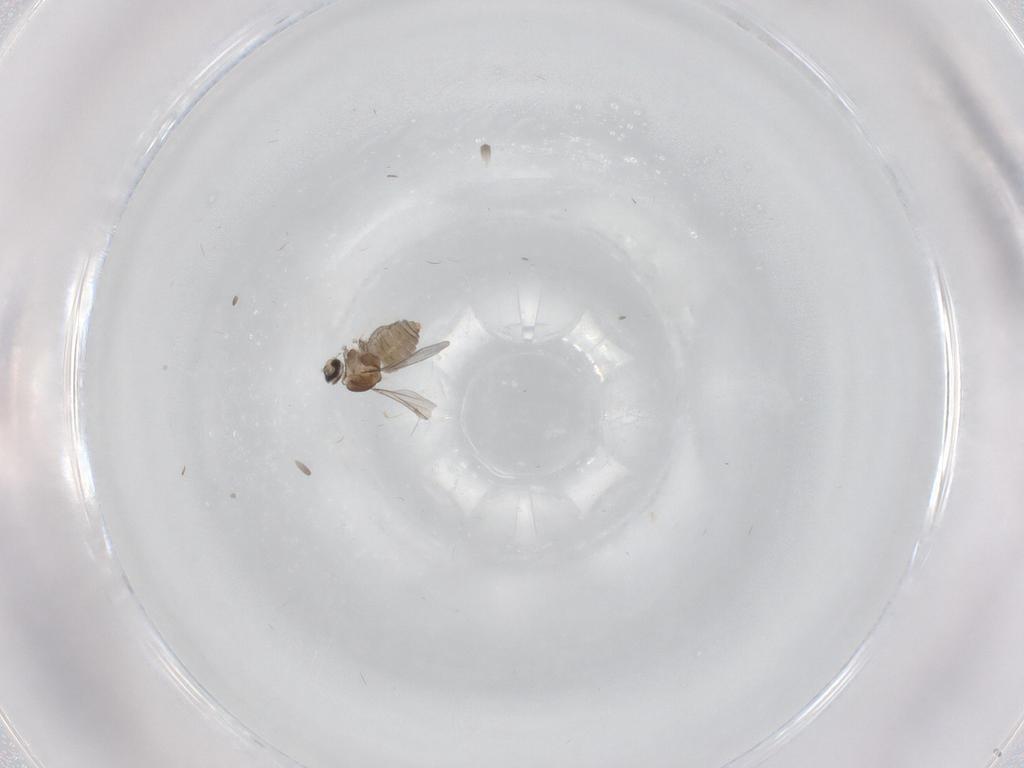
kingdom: Animalia
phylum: Arthropoda
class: Insecta
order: Diptera
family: Cecidomyiidae
